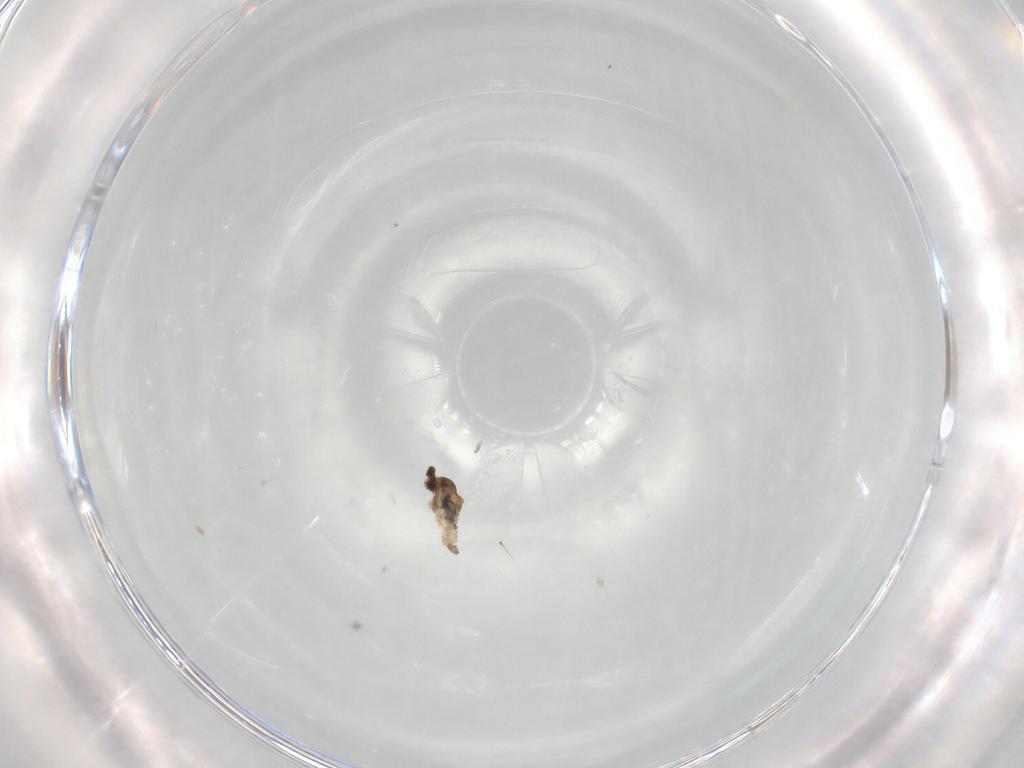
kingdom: Animalia
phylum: Arthropoda
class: Insecta
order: Diptera
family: Cecidomyiidae
